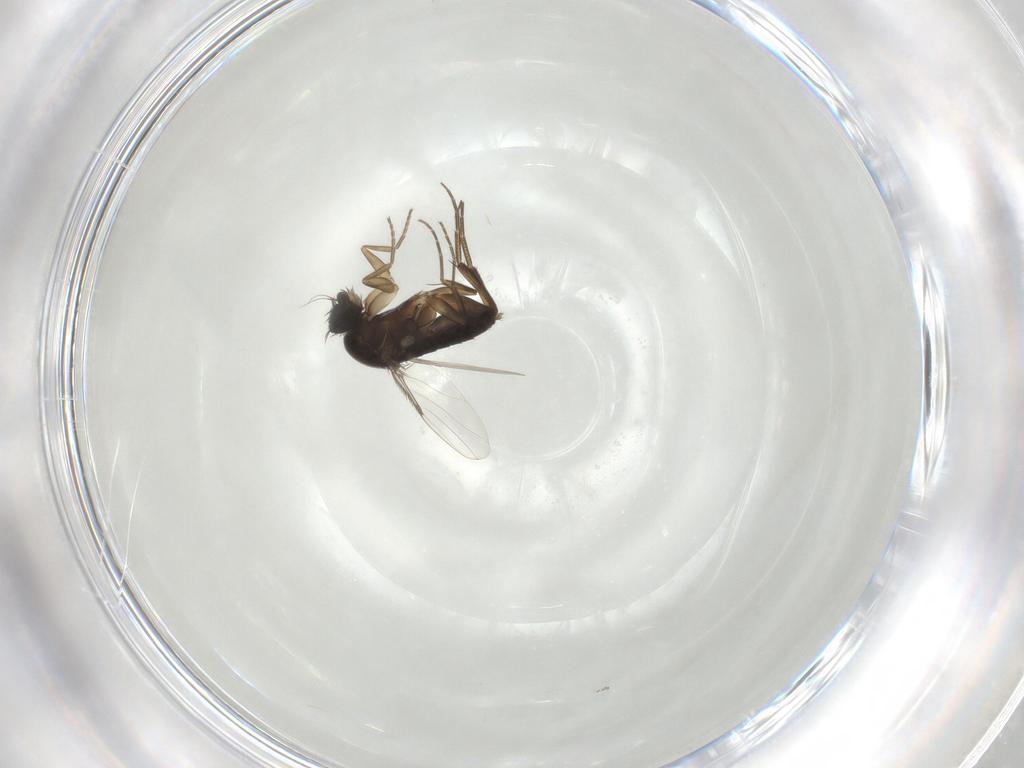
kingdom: Animalia
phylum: Arthropoda
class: Insecta
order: Diptera
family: Phoridae
